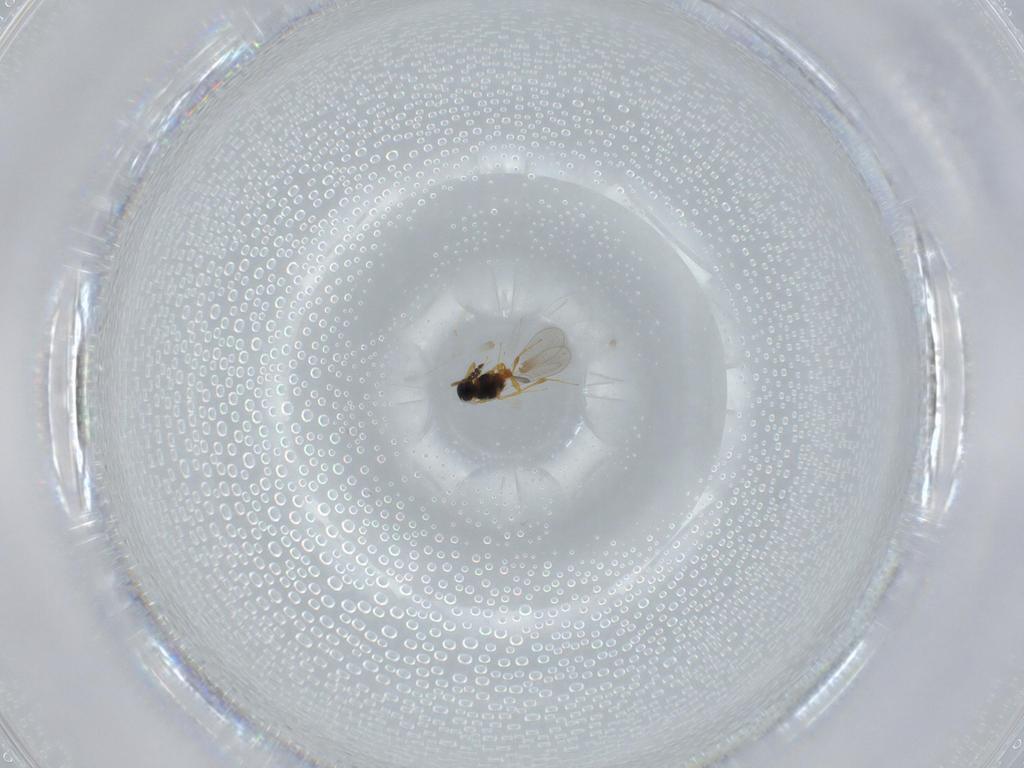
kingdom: Animalia
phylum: Arthropoda
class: Insecta
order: Hymenoptera
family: Platygastridae
